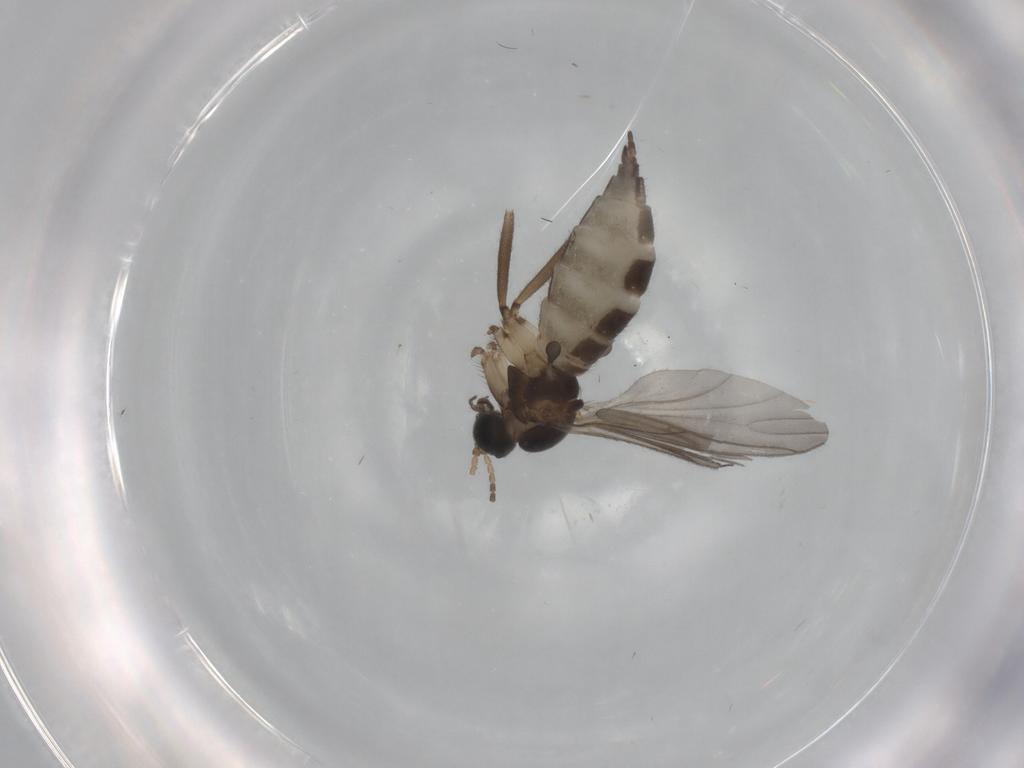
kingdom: Animalia
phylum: Arthropoda
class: Insecta
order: Diptera
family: Sciaridae
